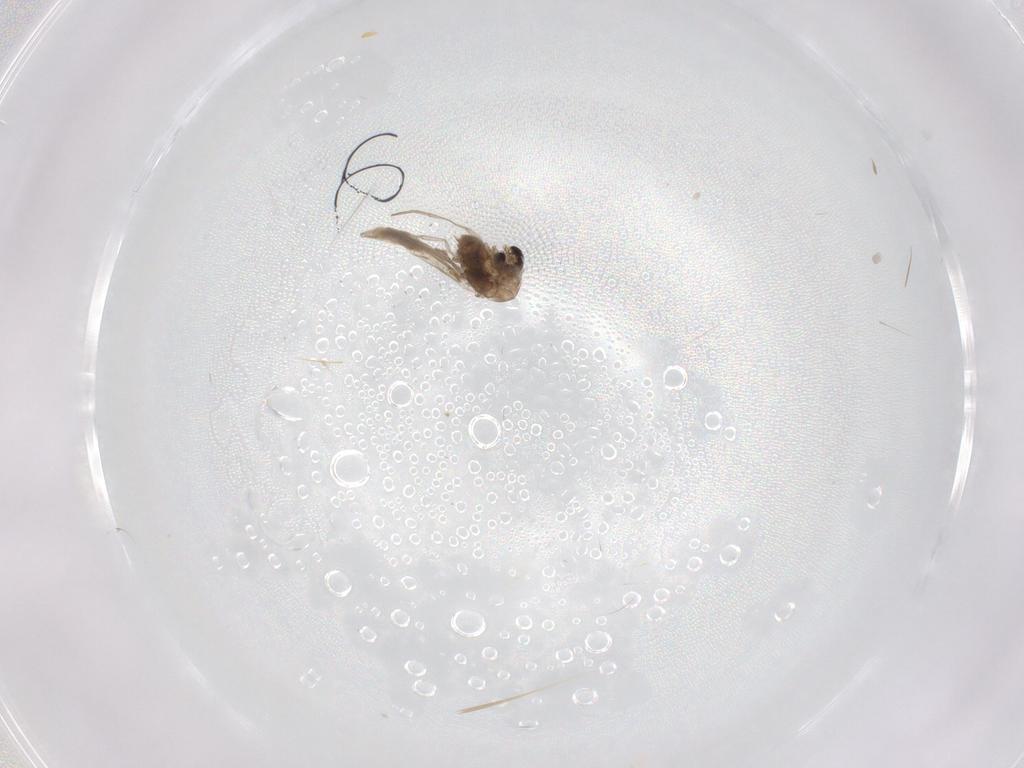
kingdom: Animalia
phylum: Arthropoda
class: Insecta
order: Diptera
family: Psychodidae
